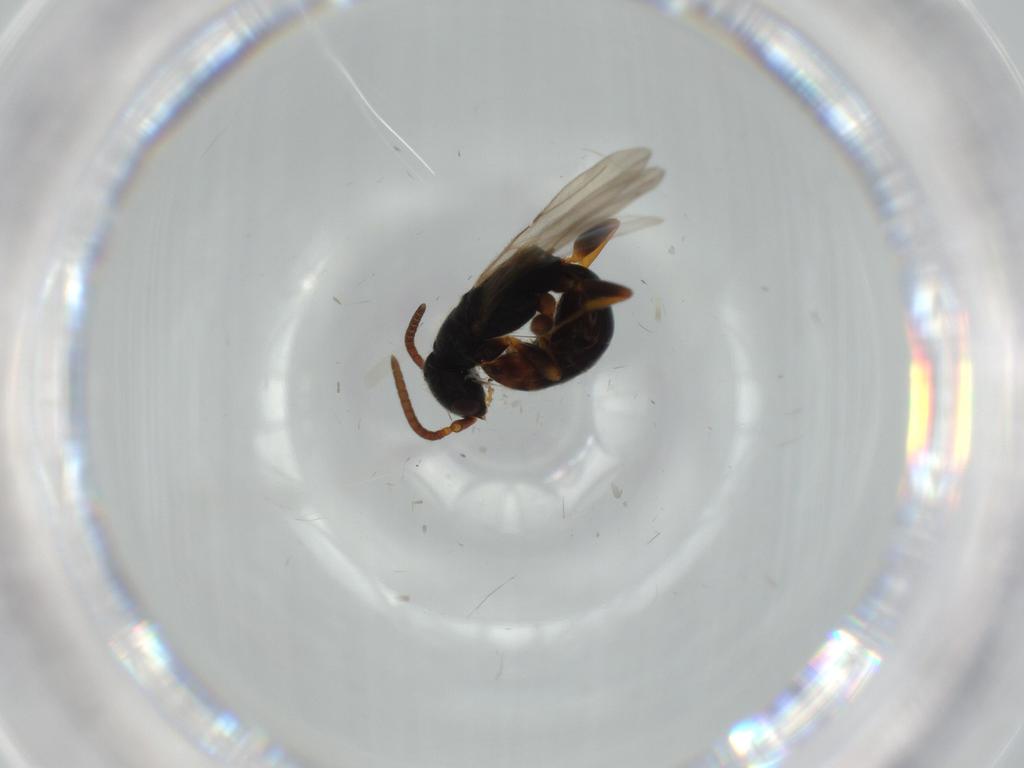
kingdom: Animalia
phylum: Arthropoda
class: Insecta
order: Hymenoptera
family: Bethylidae
